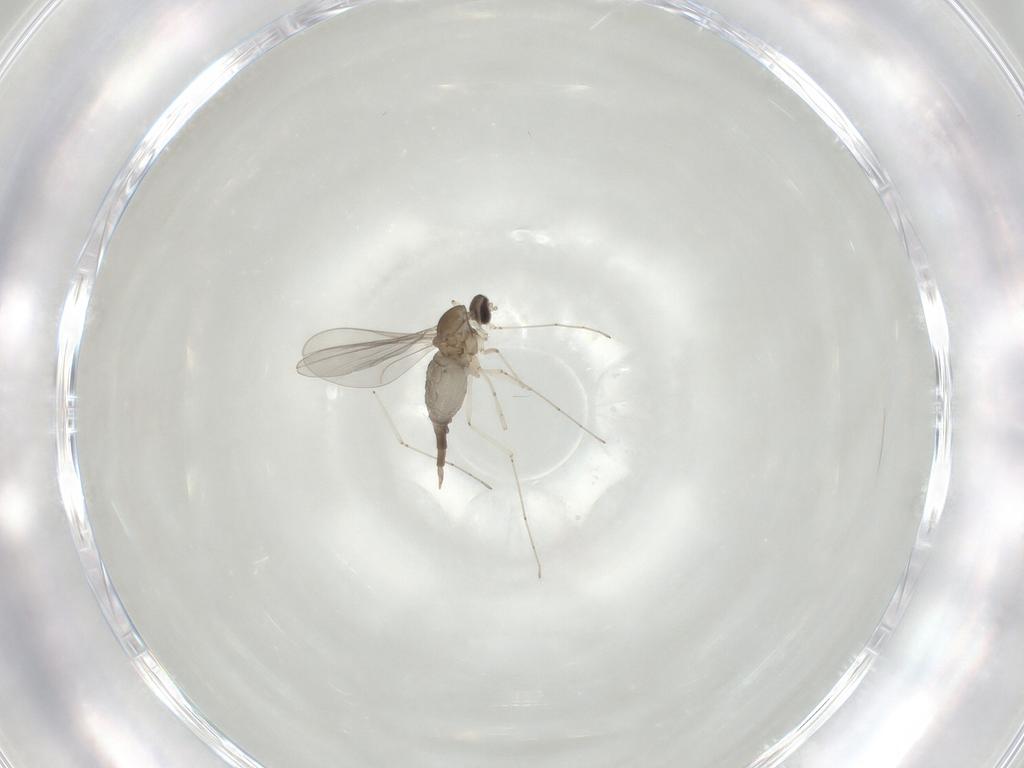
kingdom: Animalia
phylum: Arthropoda
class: Insecta
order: Diptera
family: Cecidomyiidae
